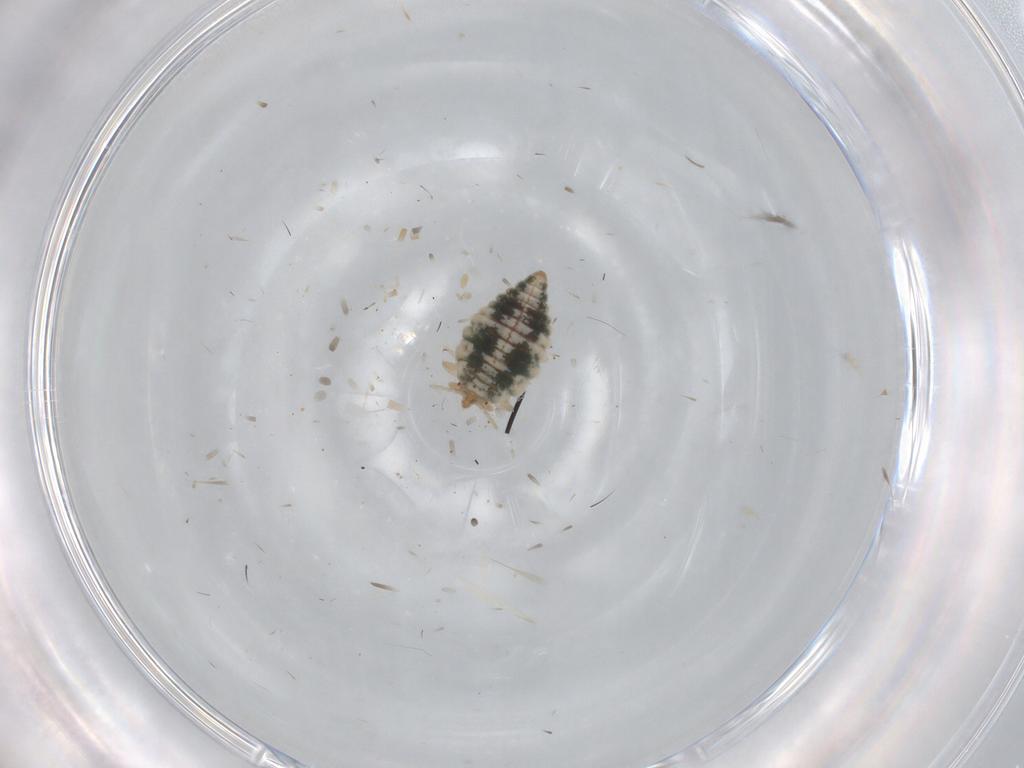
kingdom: Animalia
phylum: Arthropoda
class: Insecta
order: Neuroptera
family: Coniopterygidae
